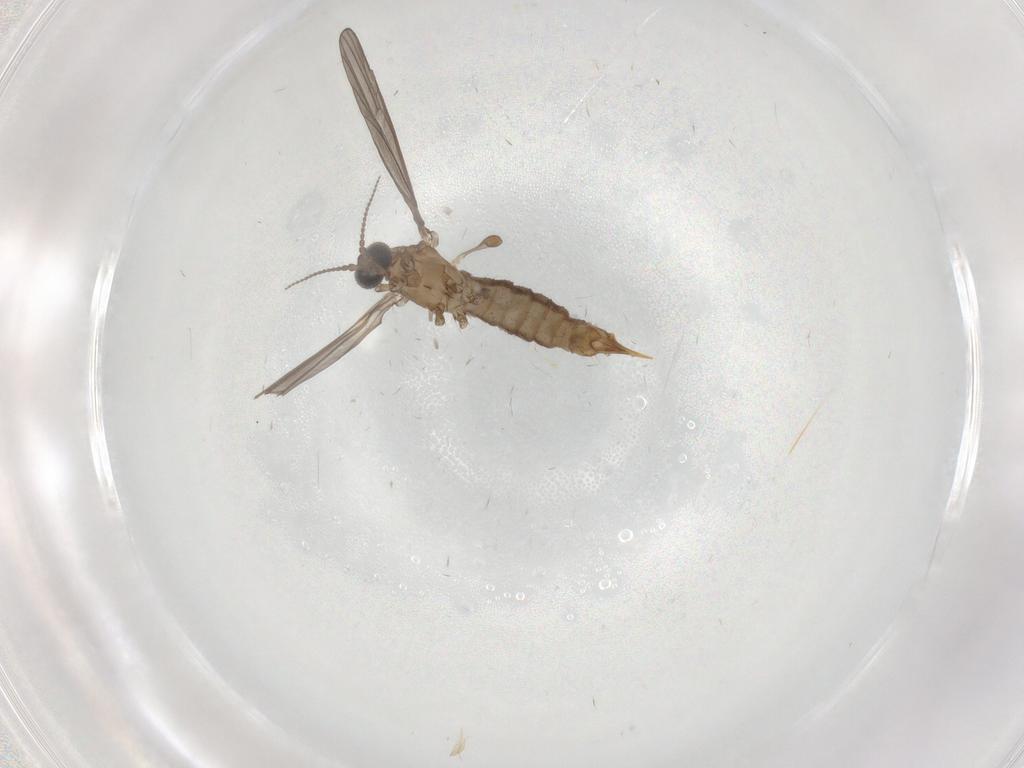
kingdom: Animalia
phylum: Arthropoda
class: Insecta
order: Diptera
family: Limoniidae
